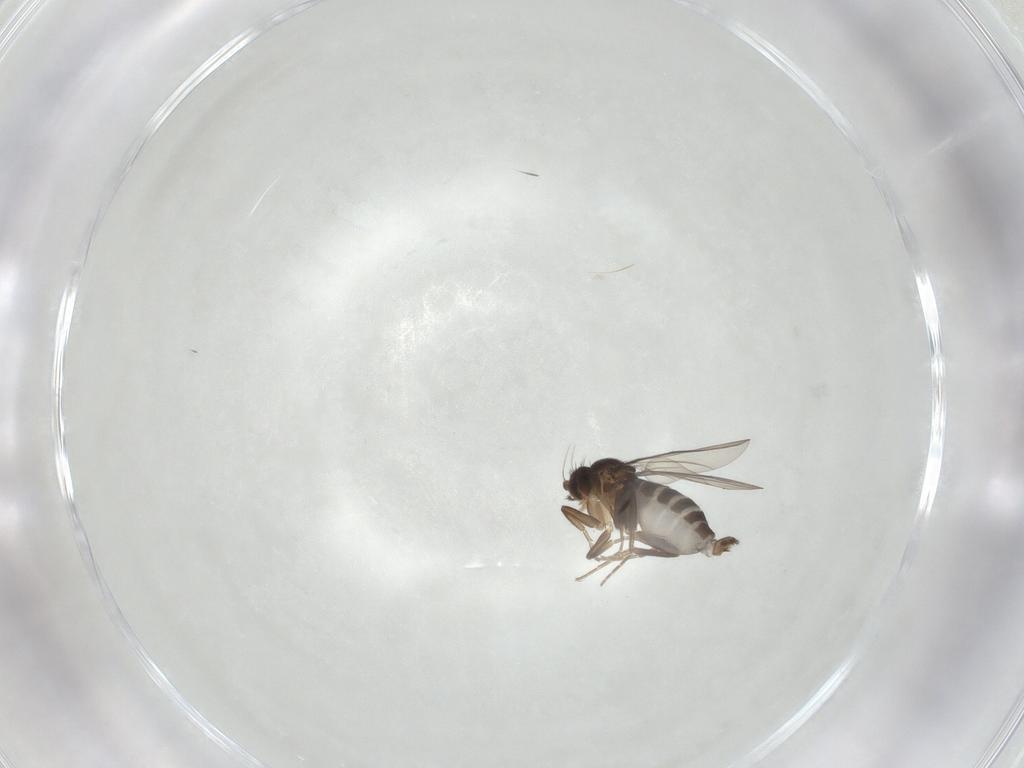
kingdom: Animalia
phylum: Arthropoda
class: Insecta
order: Diptera
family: Phoridae
